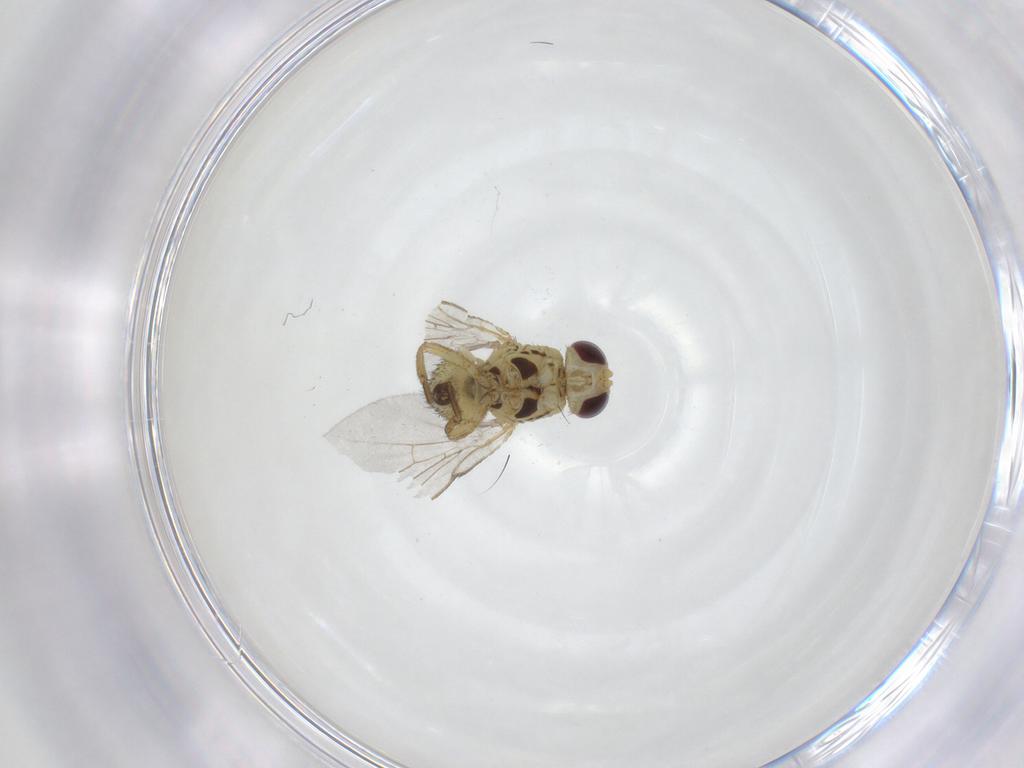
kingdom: Animalia
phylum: Arthropoda
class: Insecta
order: Diptera
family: Agromyzidae
